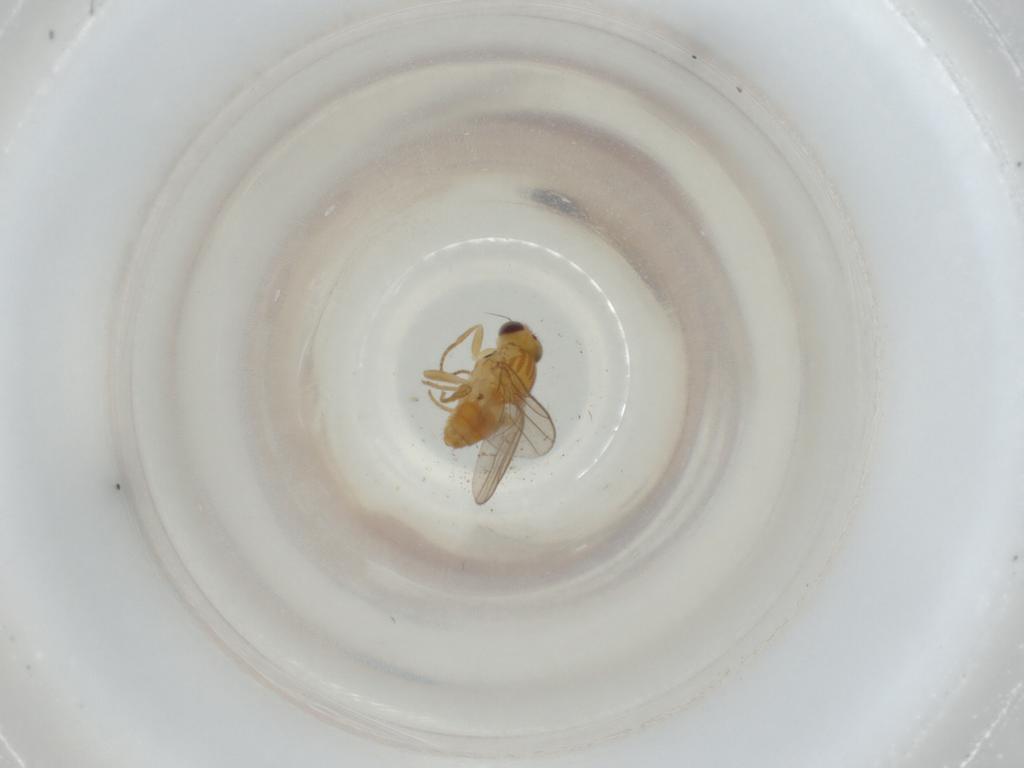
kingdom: Animalia
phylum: Arthropoda
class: Insecta
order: Diptera
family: Chloropidae
